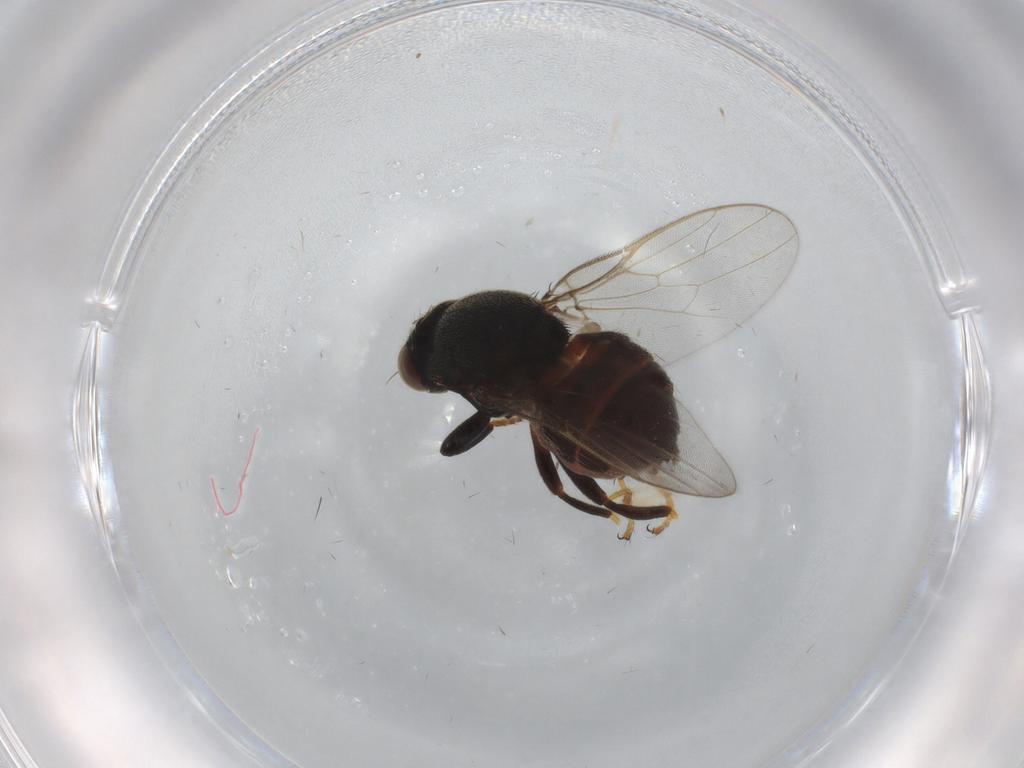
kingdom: Animalia
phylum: Arthropoda
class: Insecta
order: Diptera
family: Chloropidae
